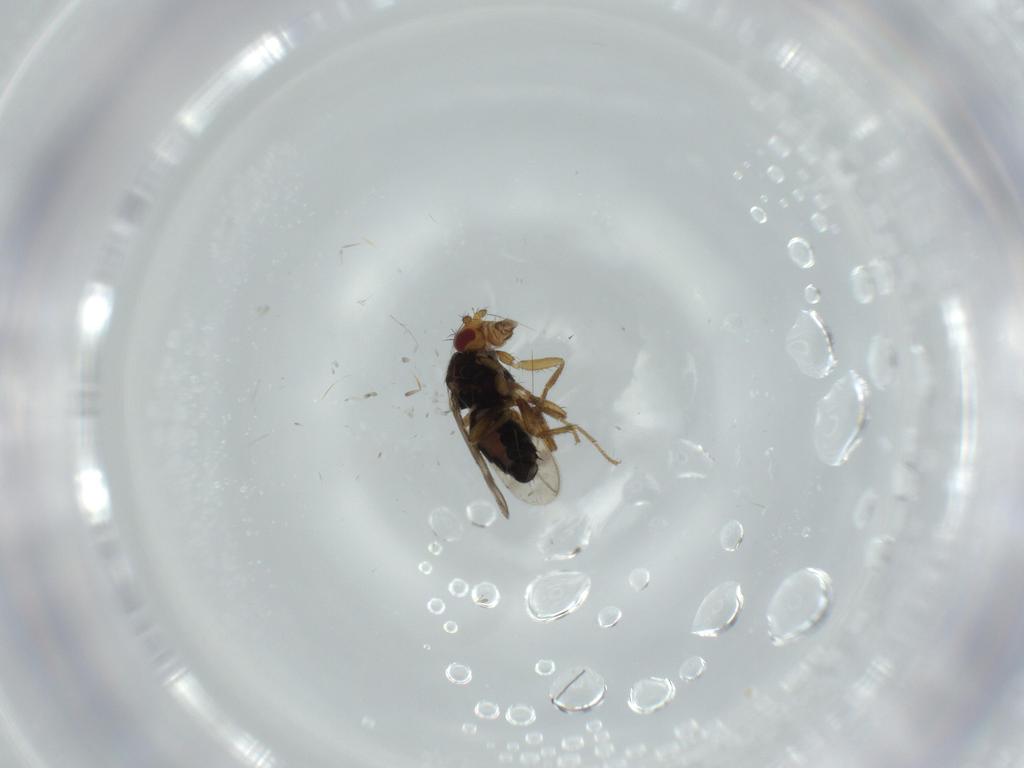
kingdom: Animalia
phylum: Arthropoda
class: Insecta
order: Diptera
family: Sphaeroceridae
